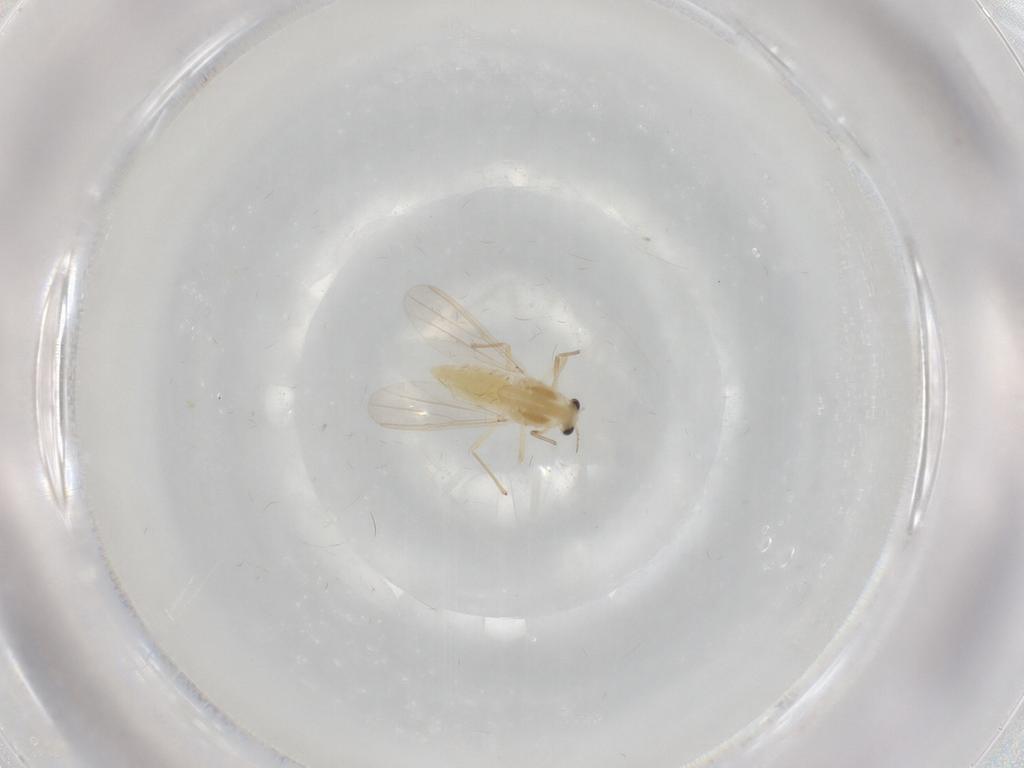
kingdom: Animalia
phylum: Arthropoda
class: Insecta
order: Diptera
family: Chironomidae
